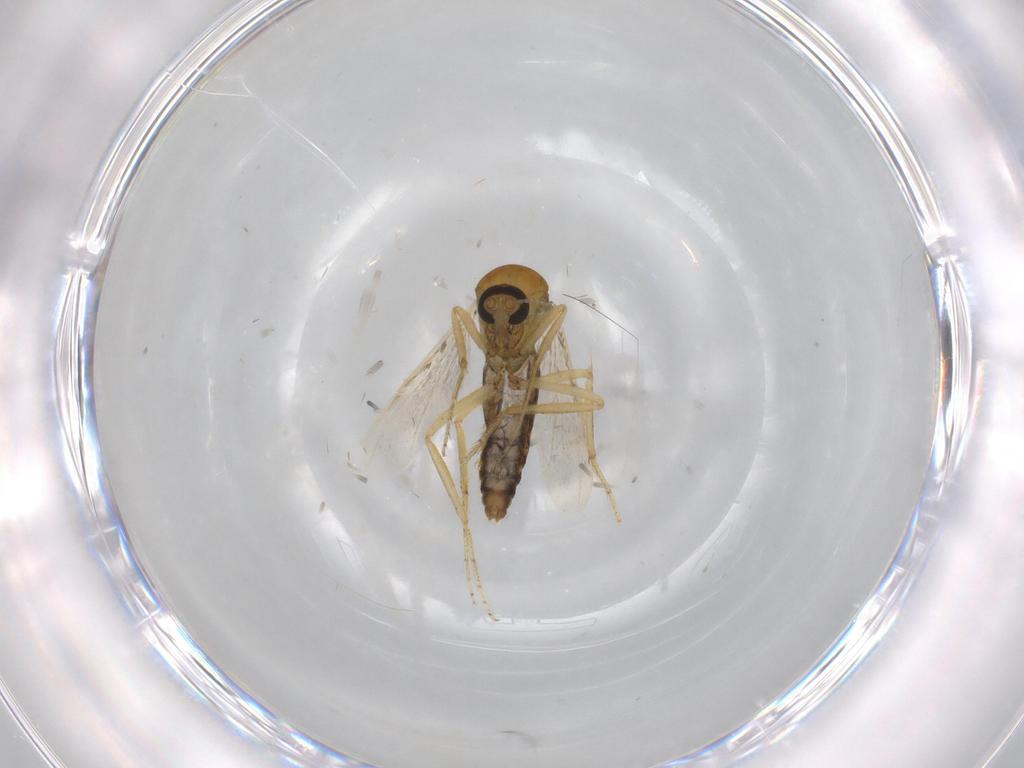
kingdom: Animalia
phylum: Arthropoda
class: Insecta
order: Diptera
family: Ceratopogonidae
